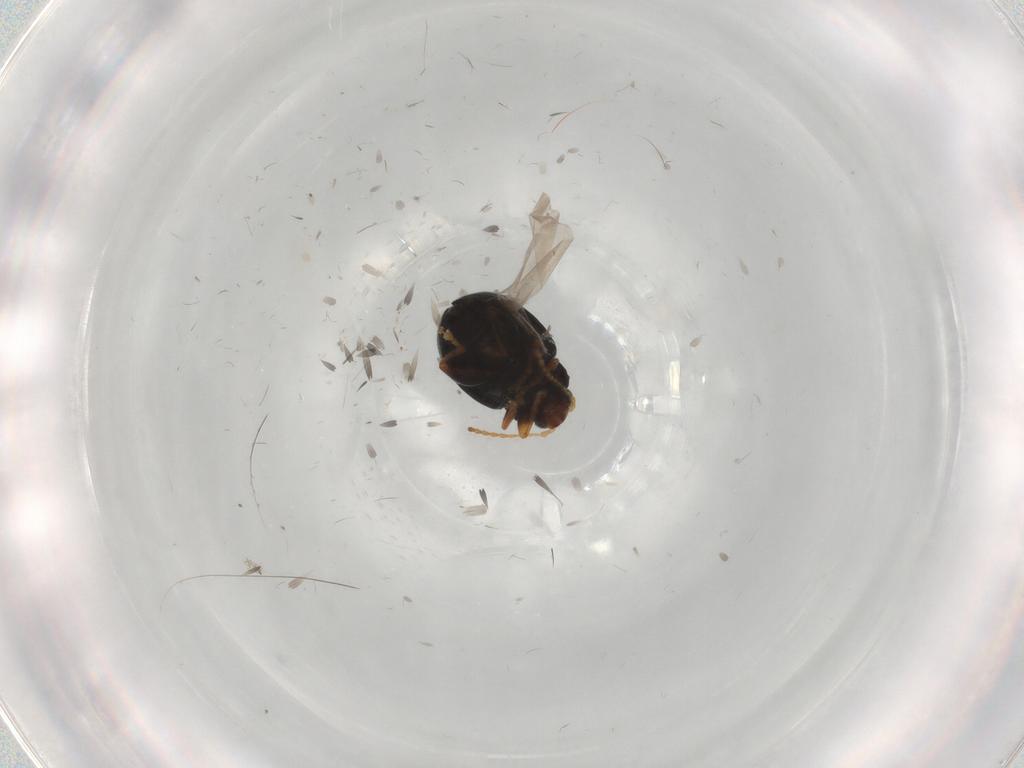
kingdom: Animalia
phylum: Arthropoda
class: Insecta
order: Coleoptera
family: Chrysomelidae
